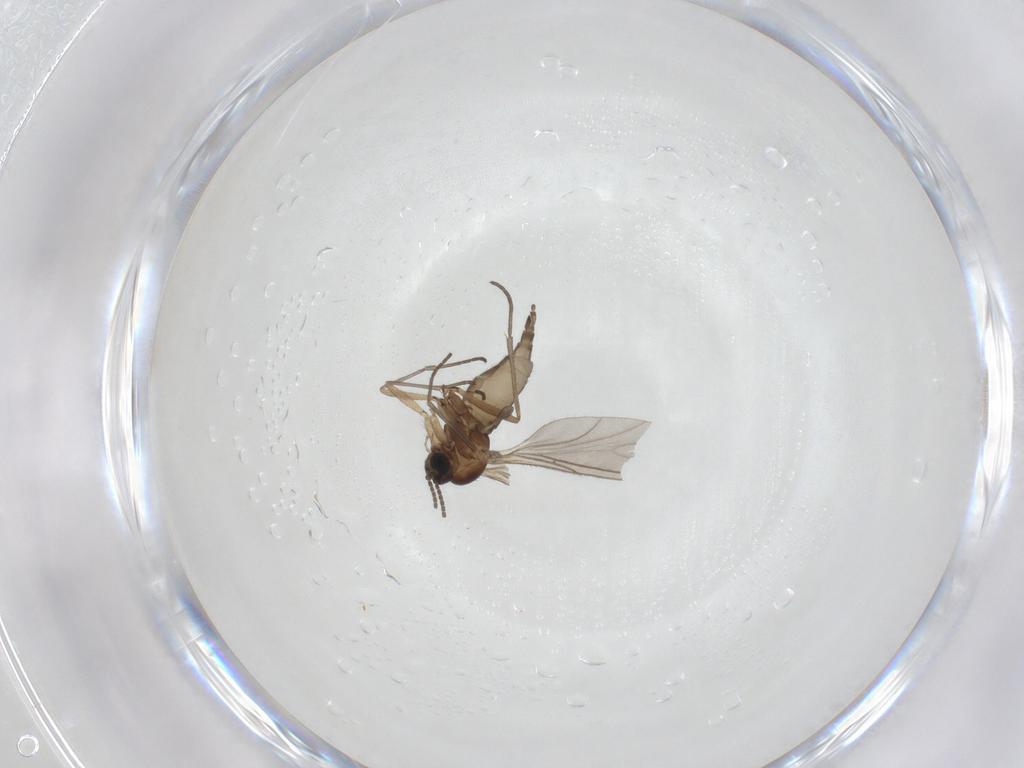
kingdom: Animalia
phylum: Arthropoda
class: Insecta
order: Diptera
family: Sciaridae
